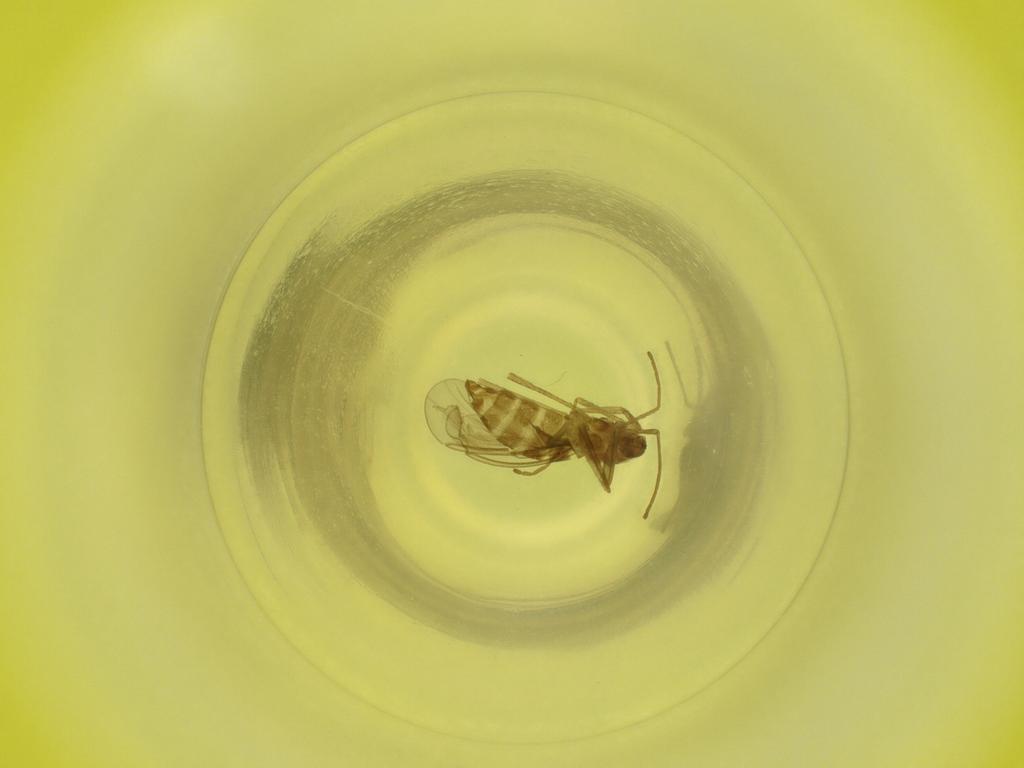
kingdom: Animalia
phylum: Arthropoda
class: Insecta
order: Diptera
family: Cecidomyiidae
